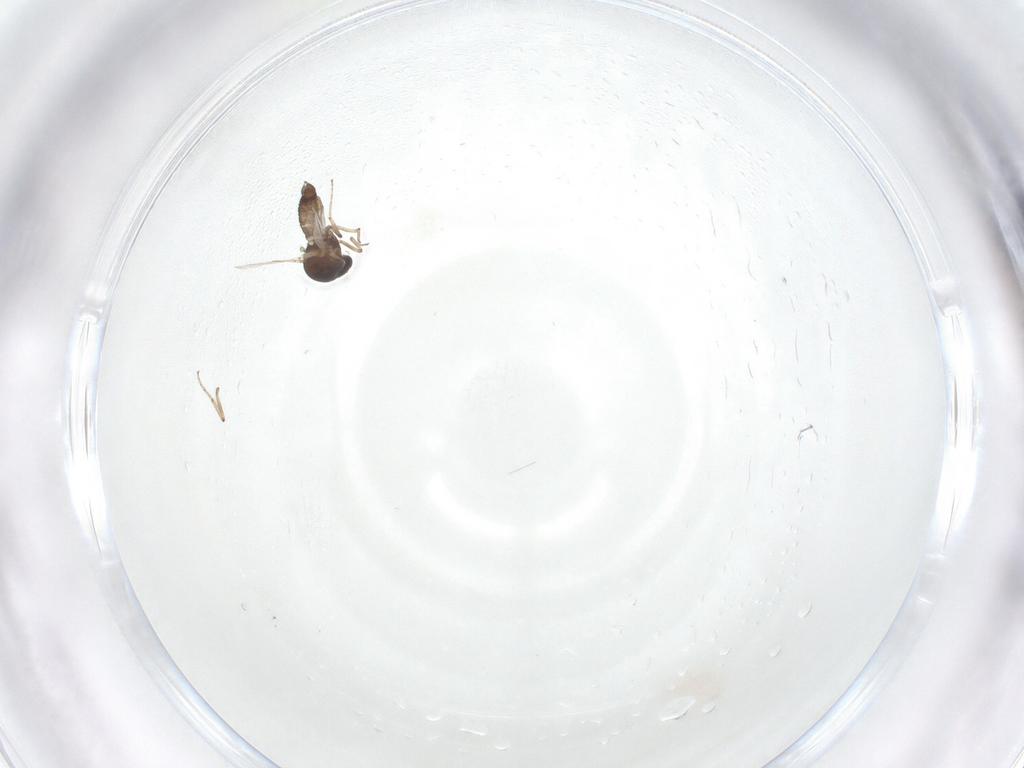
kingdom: Animalia
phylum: Arthropoda
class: Insecta
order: Diptera
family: Ceratopogonidae
